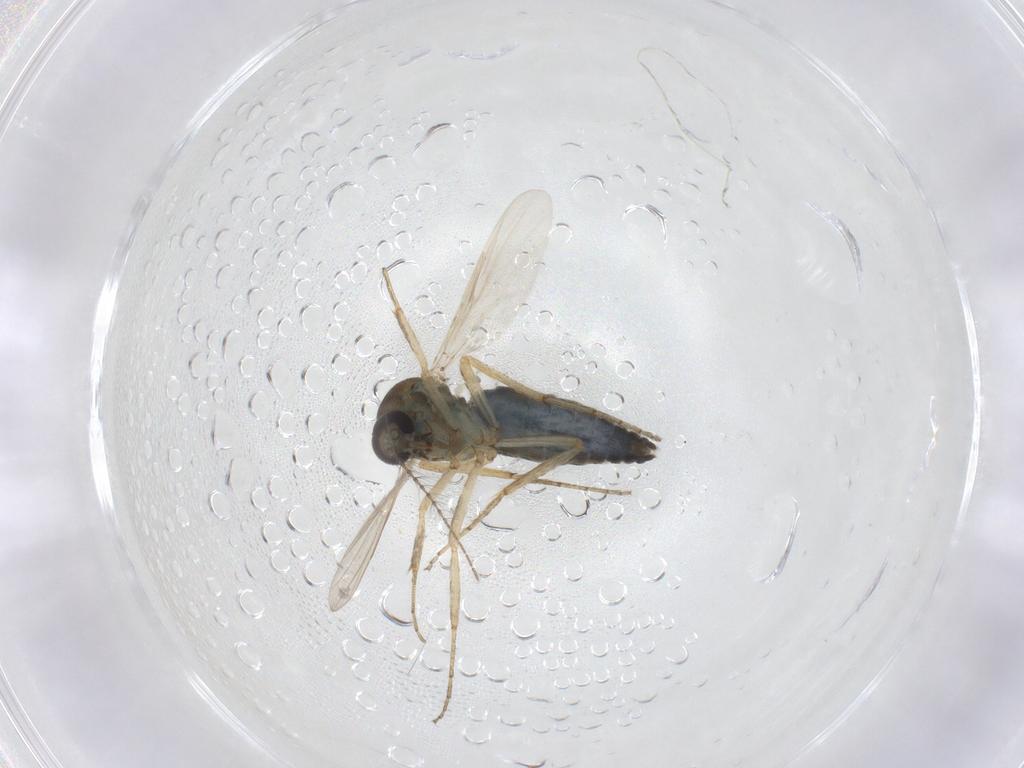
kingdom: Animalia
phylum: Arthropoda
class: Insecta
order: Diptera
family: Ceratopogonidae
